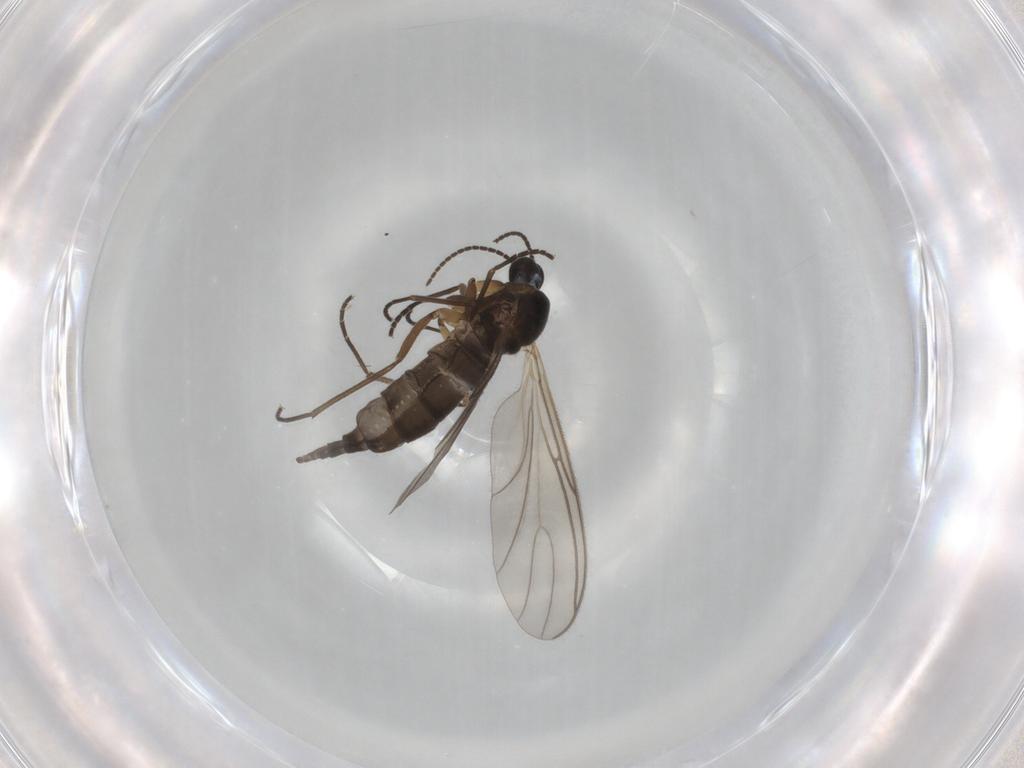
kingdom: Animalia
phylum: Arthropoda
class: Insecta
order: Diptera
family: Sciaridae
